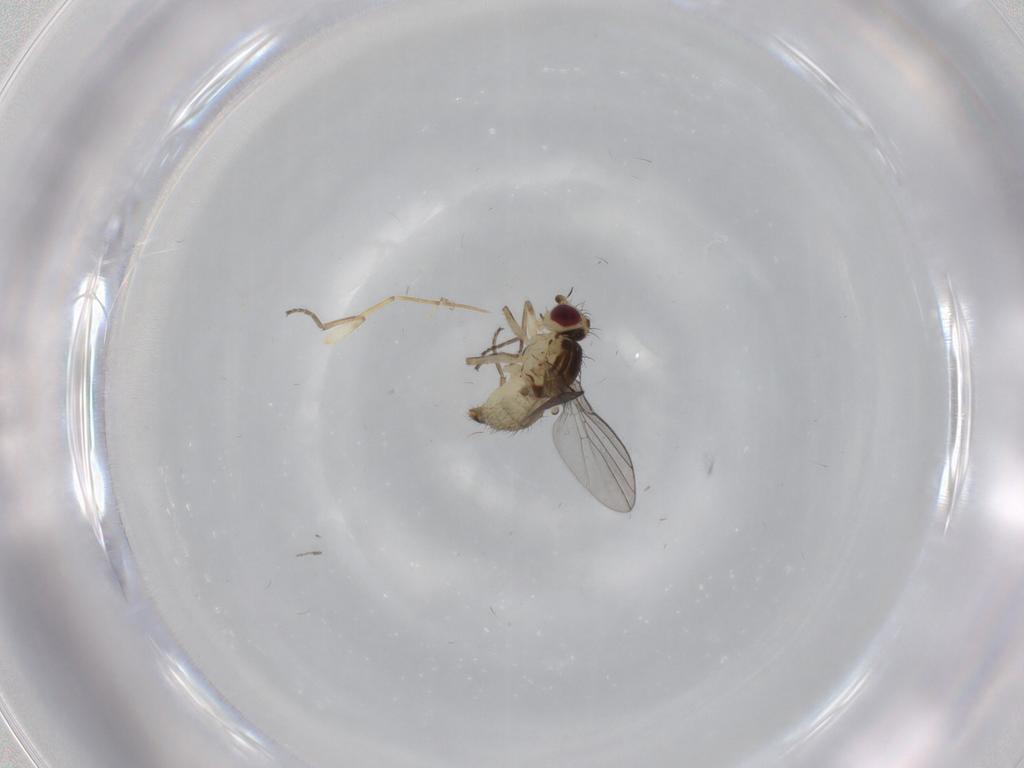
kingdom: Animalia
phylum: Arthropoda
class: Insecta
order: Diptera
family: Agromyzidae
